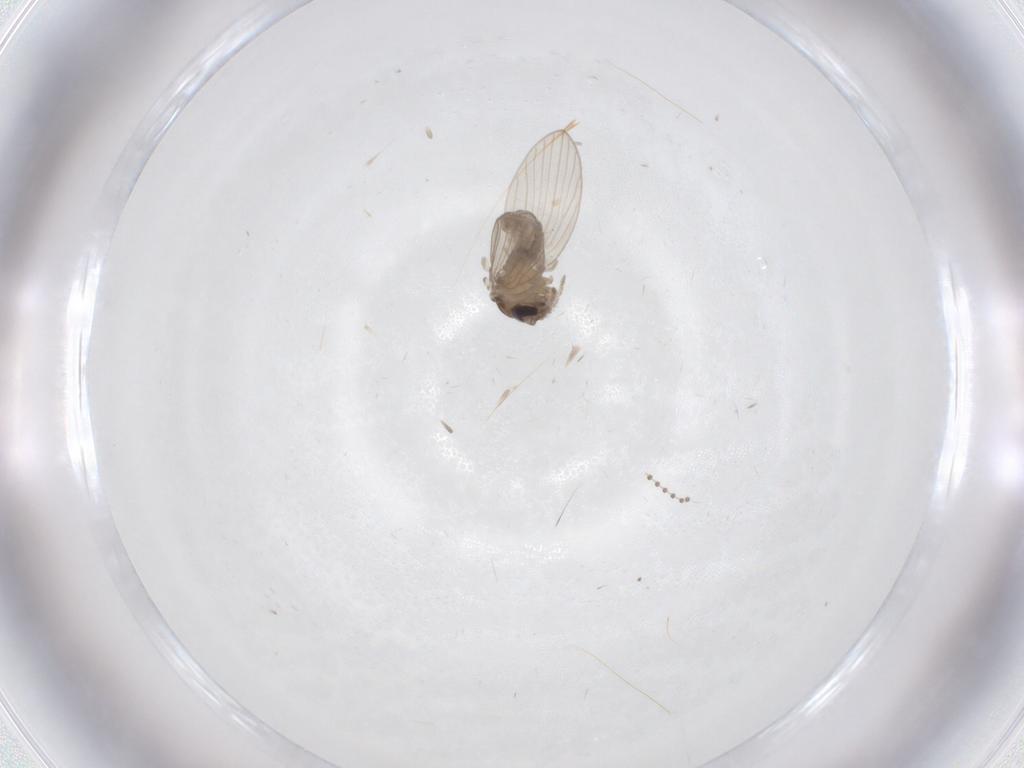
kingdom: Animalia
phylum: Arthropoda
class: Insecta
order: Diptera
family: Psychodidae
